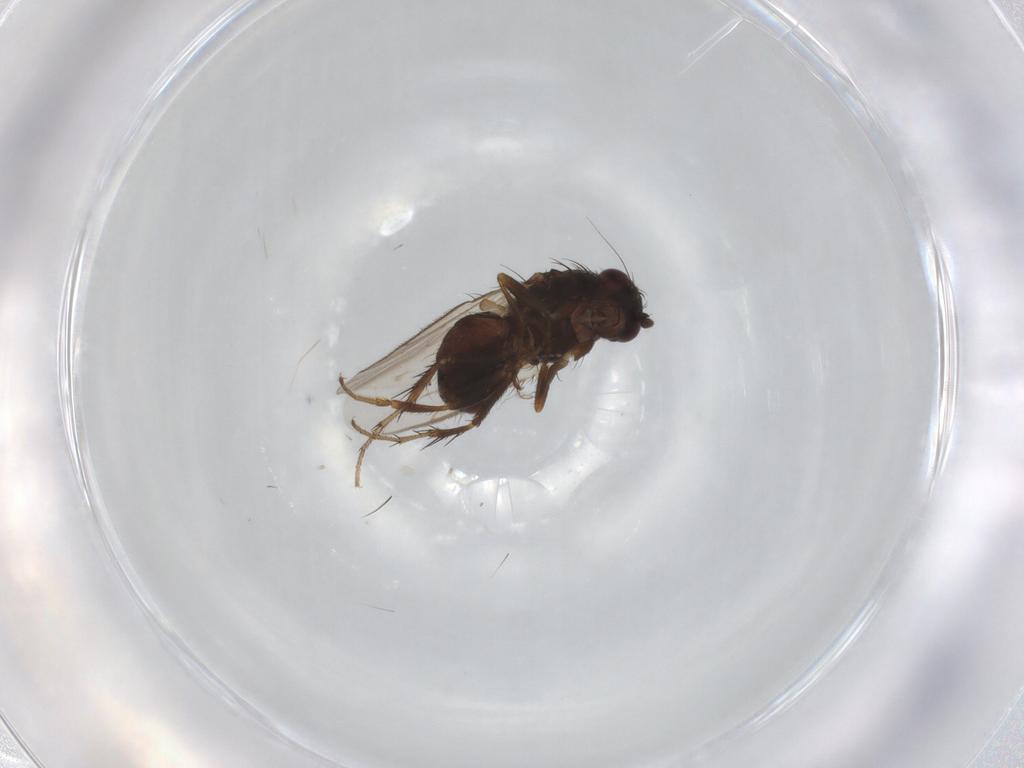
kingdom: Animalia
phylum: Arthropoda
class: Insecta
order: Diptera
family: Sphaeroceridae
